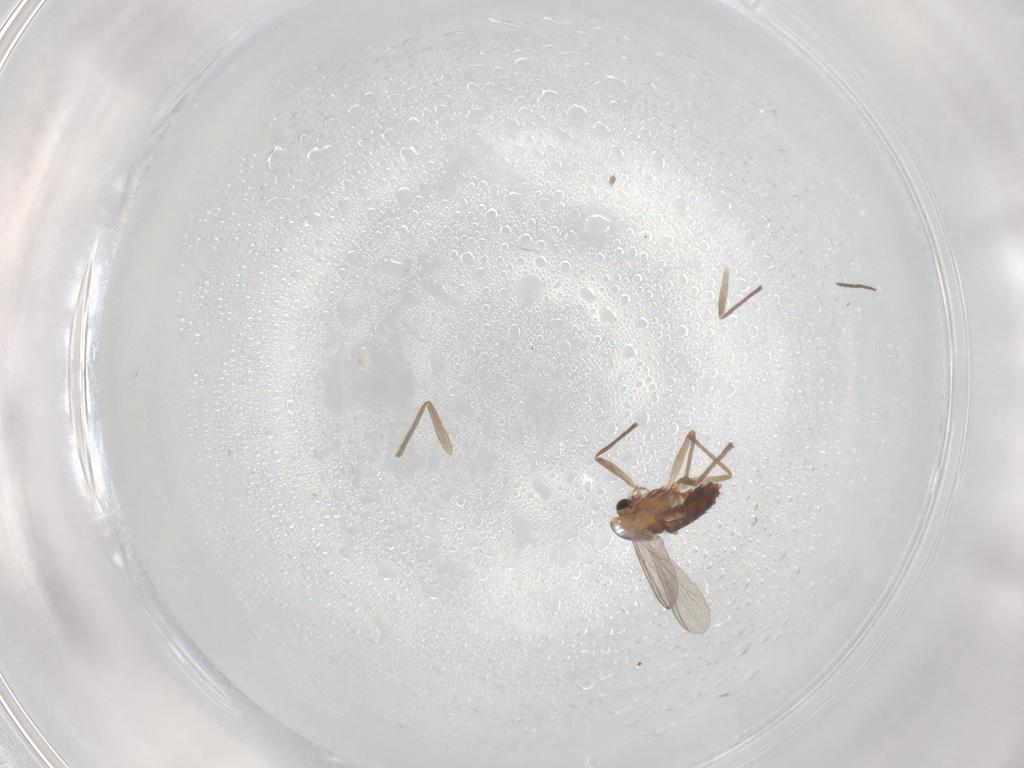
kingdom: Animalia
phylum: Arthropoda
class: Insecta
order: Diptera
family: Chironomidae
